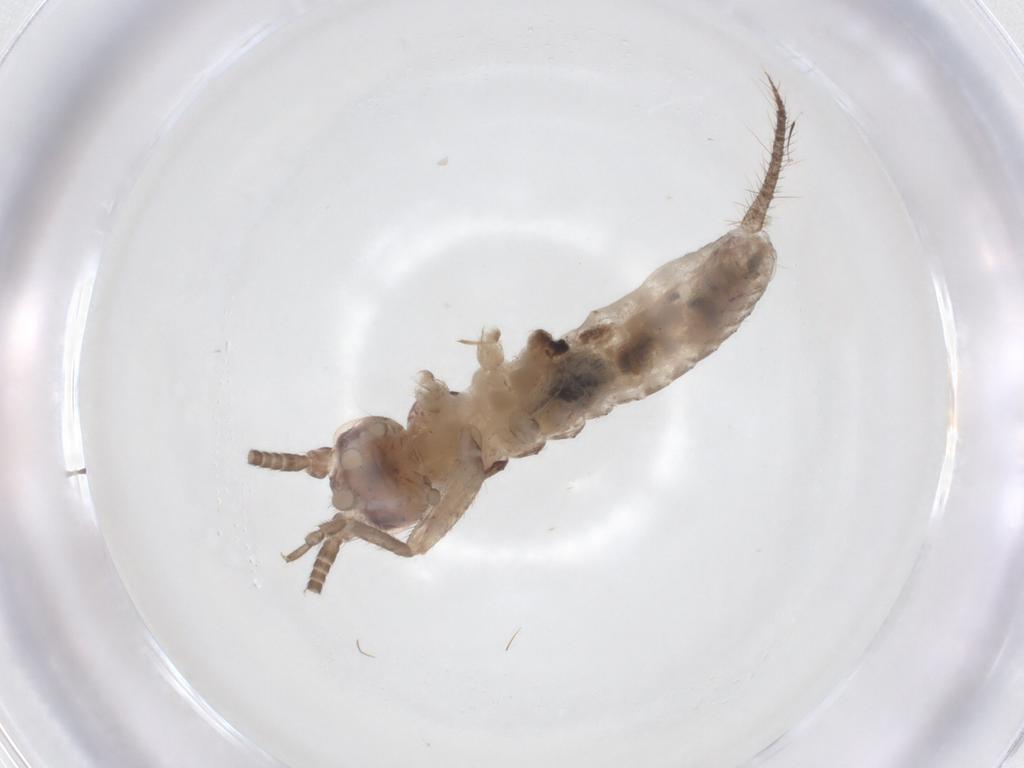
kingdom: Animalia
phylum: Arthropoda
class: Insecta
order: Orthoptera
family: Gryllidae
